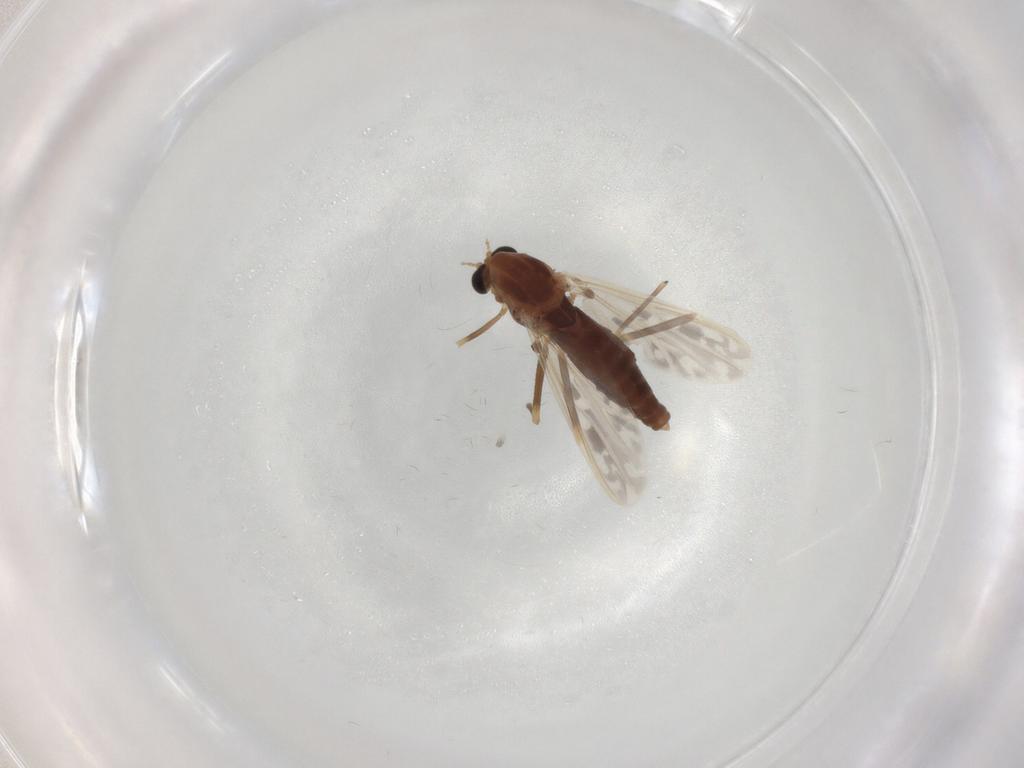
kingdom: Animalia
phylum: Arthropoda
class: Insecta
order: Diptera
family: Chironomidae
